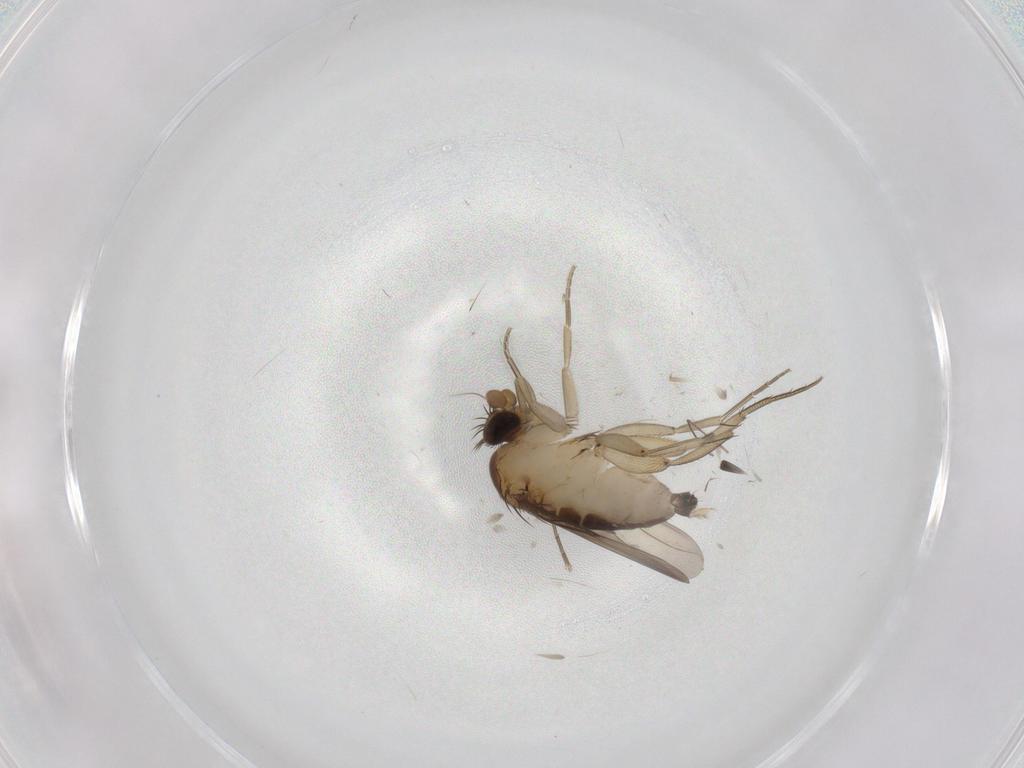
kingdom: Animalia
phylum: Arthropoda
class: Insecta
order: Diptera
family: Phoridae
